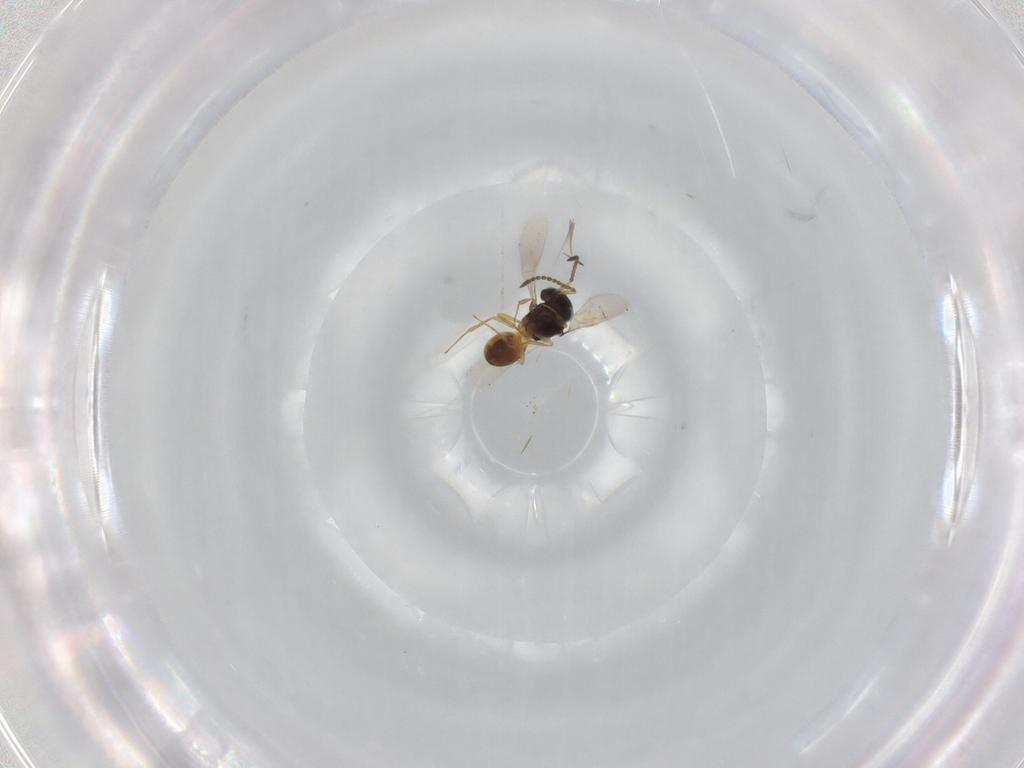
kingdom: Animalia
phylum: Arthropoda
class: Insecta
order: Hymenoptera
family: Scelionidae
